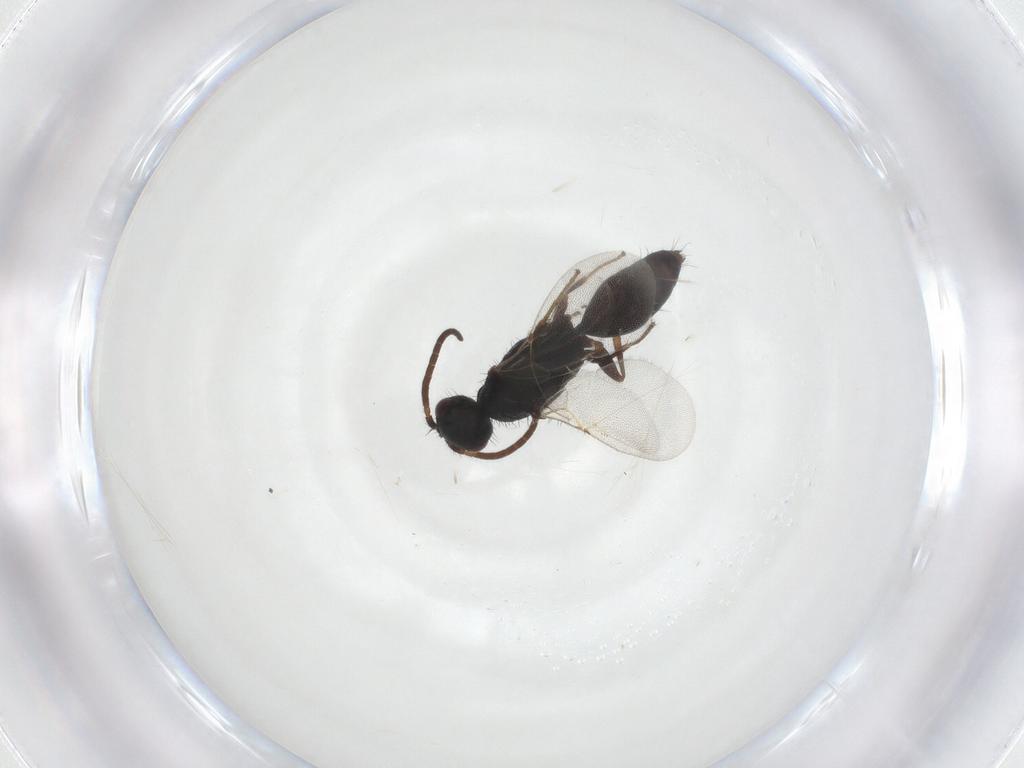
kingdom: Animalia
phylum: Arthropoda
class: Insecta
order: Hymenoptera
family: Bethylidae
